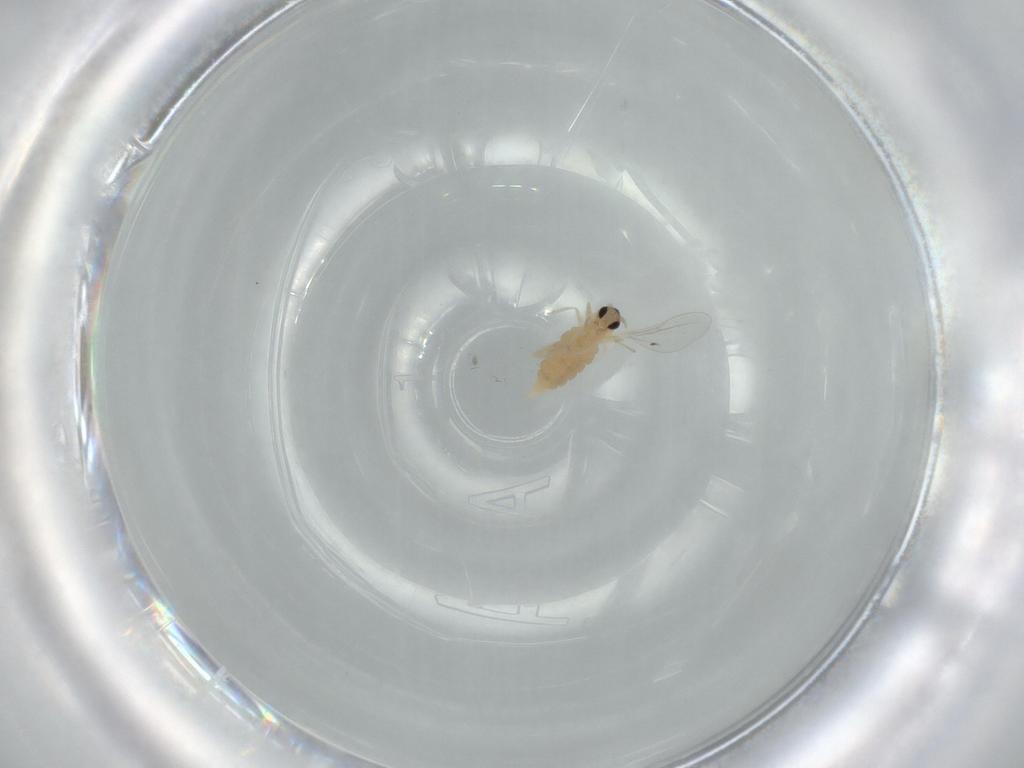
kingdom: Animalia
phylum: Arthropoda
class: Insecta
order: Diptera
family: Cecidomyiidae
